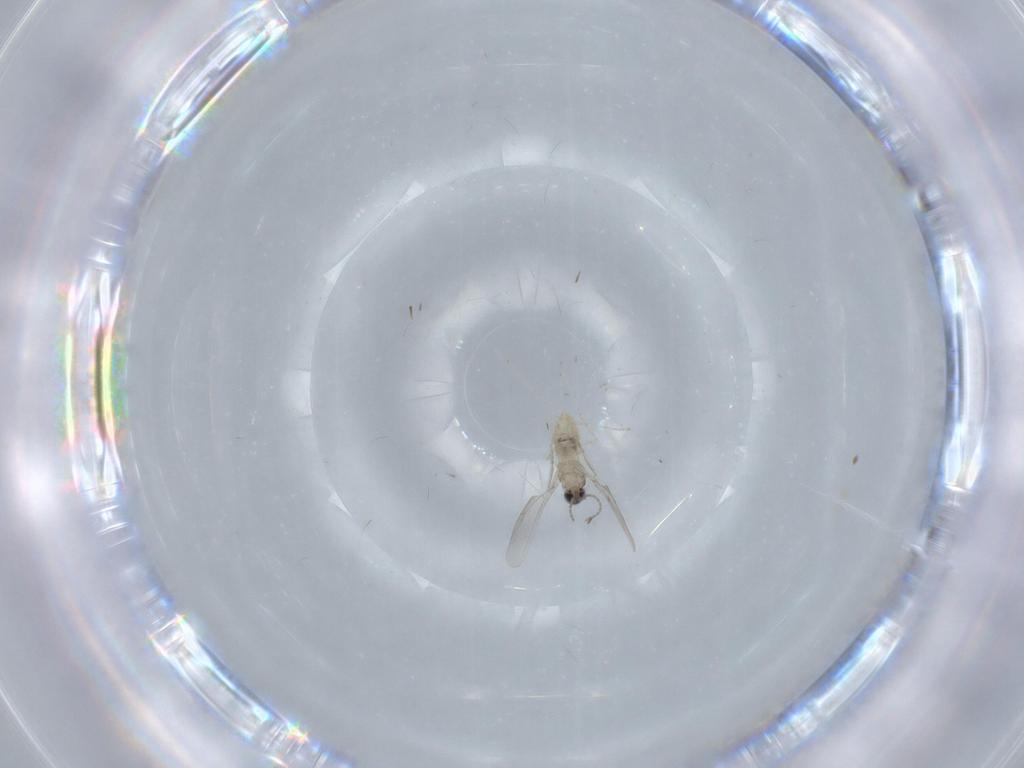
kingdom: Animalia
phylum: Arthropoda
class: Insecta
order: Diptera
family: Cecidomyiidae
